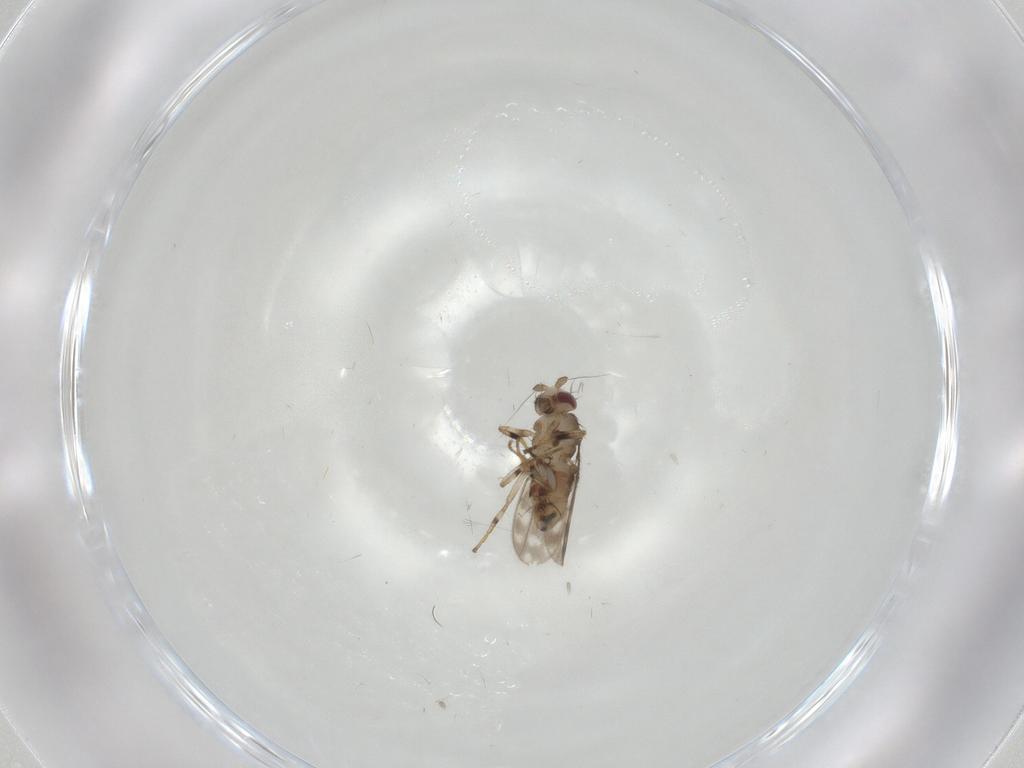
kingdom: Animalia
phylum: Arthropoda
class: Insecta
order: Diptera
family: Sphaeroceridae
